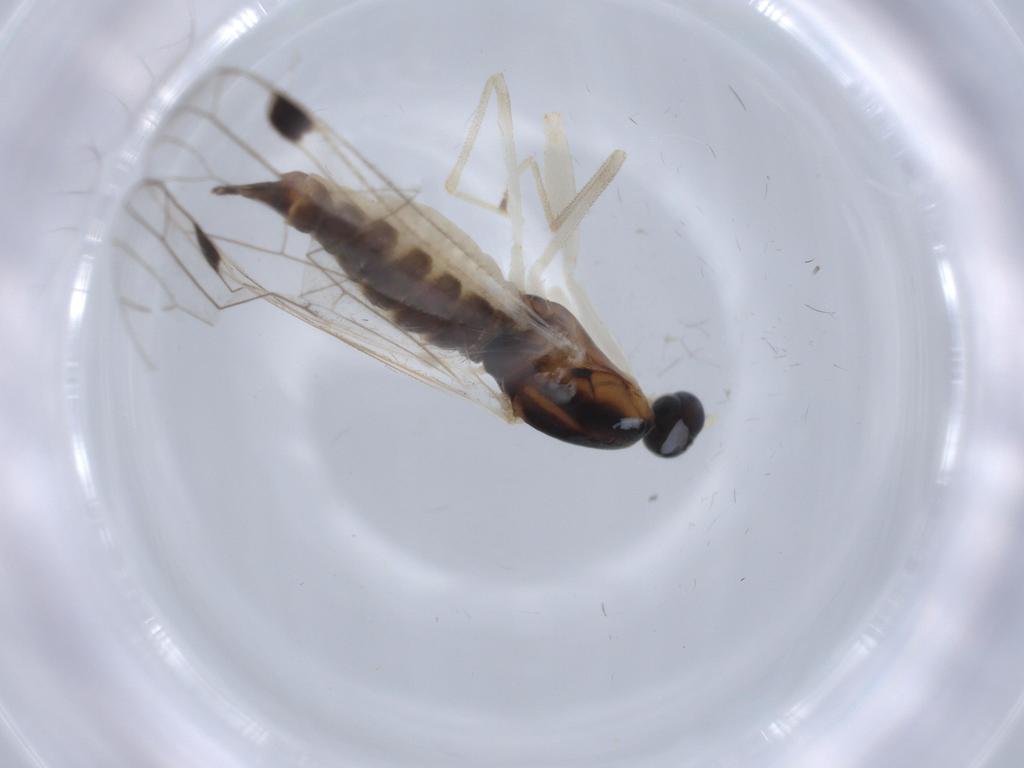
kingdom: Animalia
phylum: Arthropoda
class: Insecta
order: Diptera
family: Empididae
